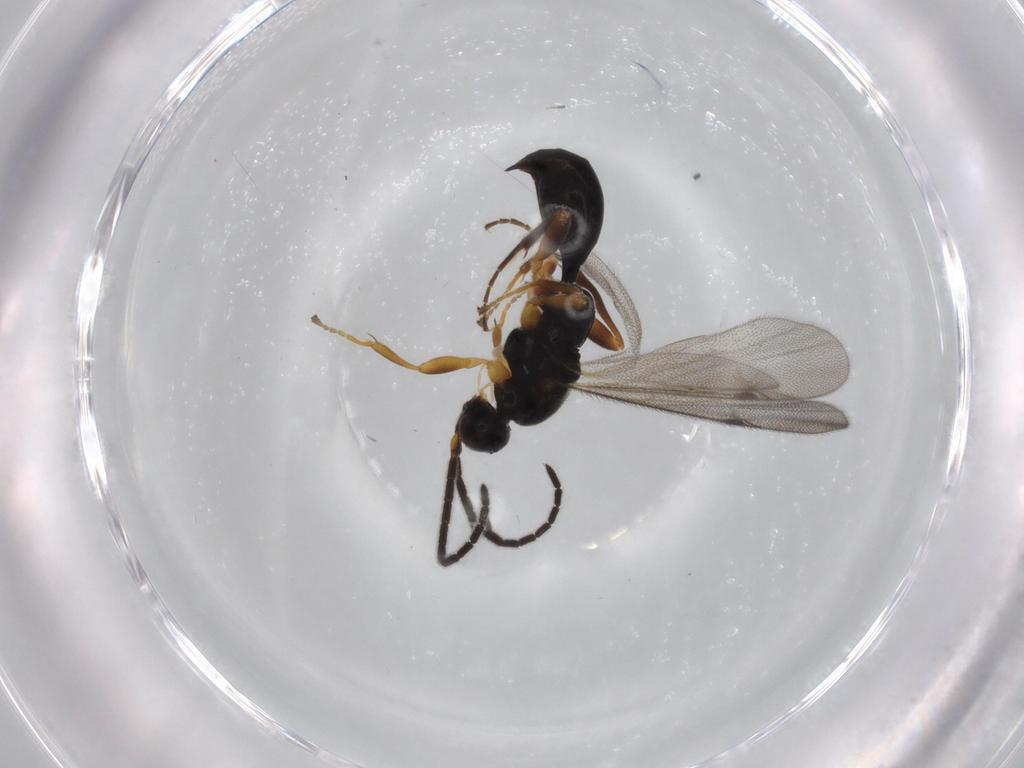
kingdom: Animalia
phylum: Arthropoda
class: Insecta
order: Hymenoptera
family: Proctotrupidae
